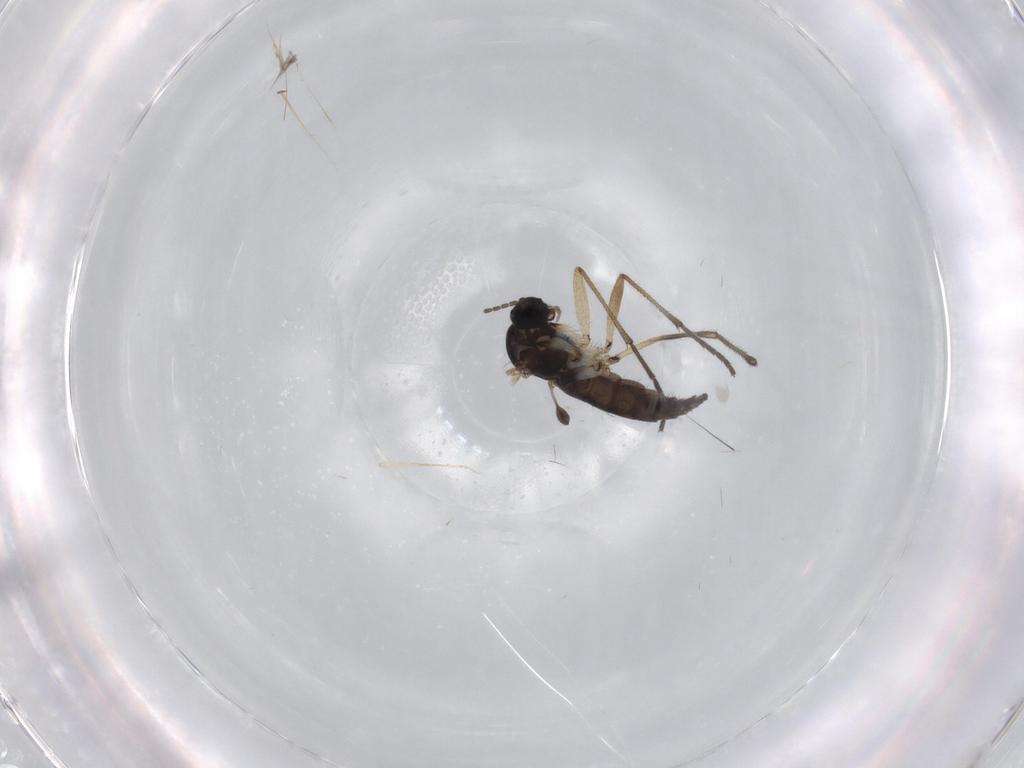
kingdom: Animalia
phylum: Arthropoda
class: Insecta
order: Diptera
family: Sciaridae
